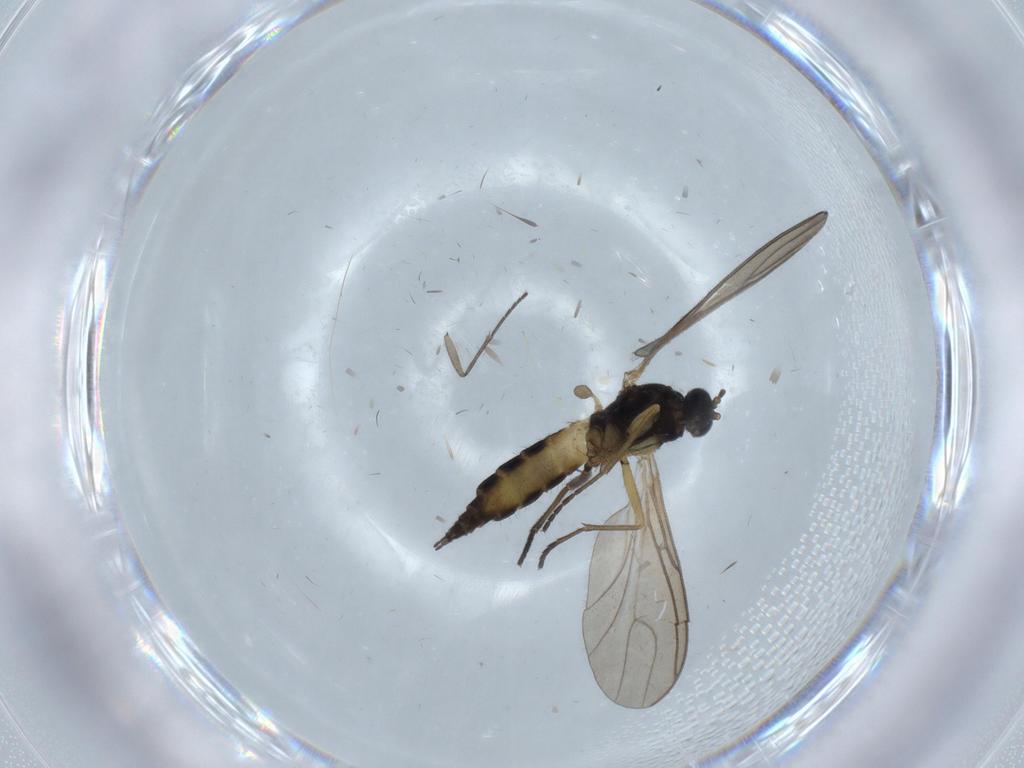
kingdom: Animalia
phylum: Arthropoda
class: Insecta
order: Diptera
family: Sciaridae
